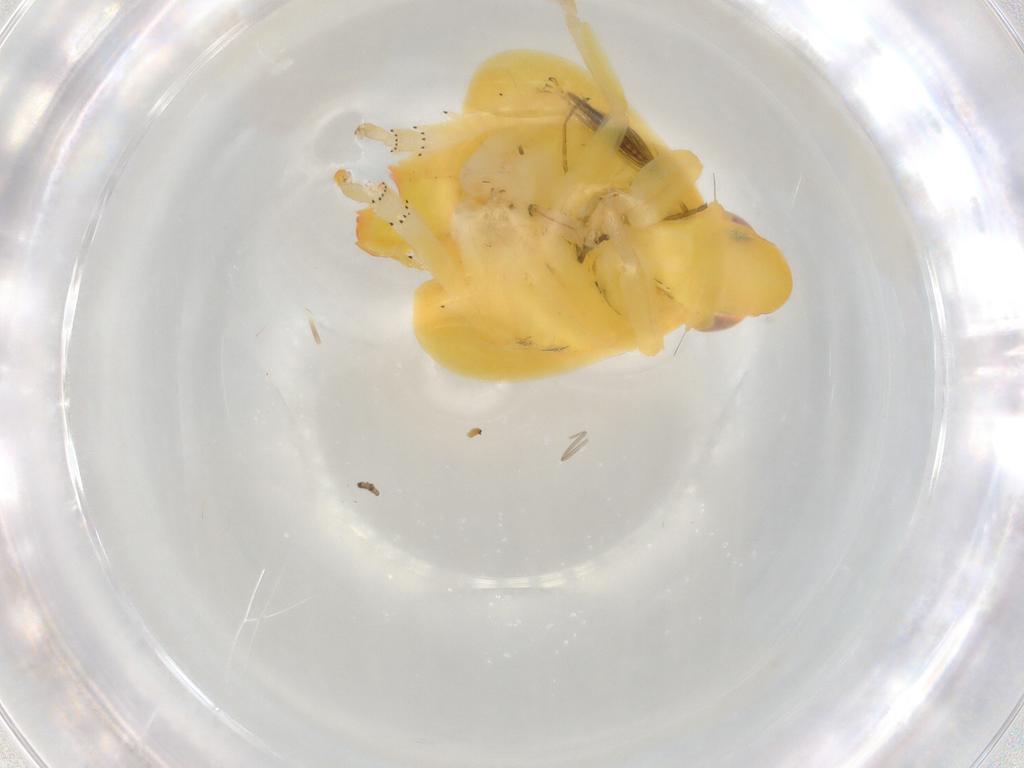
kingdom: Animalia
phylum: Arthropoda
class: Insecta
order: Diptera
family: Ceratopogonidae
